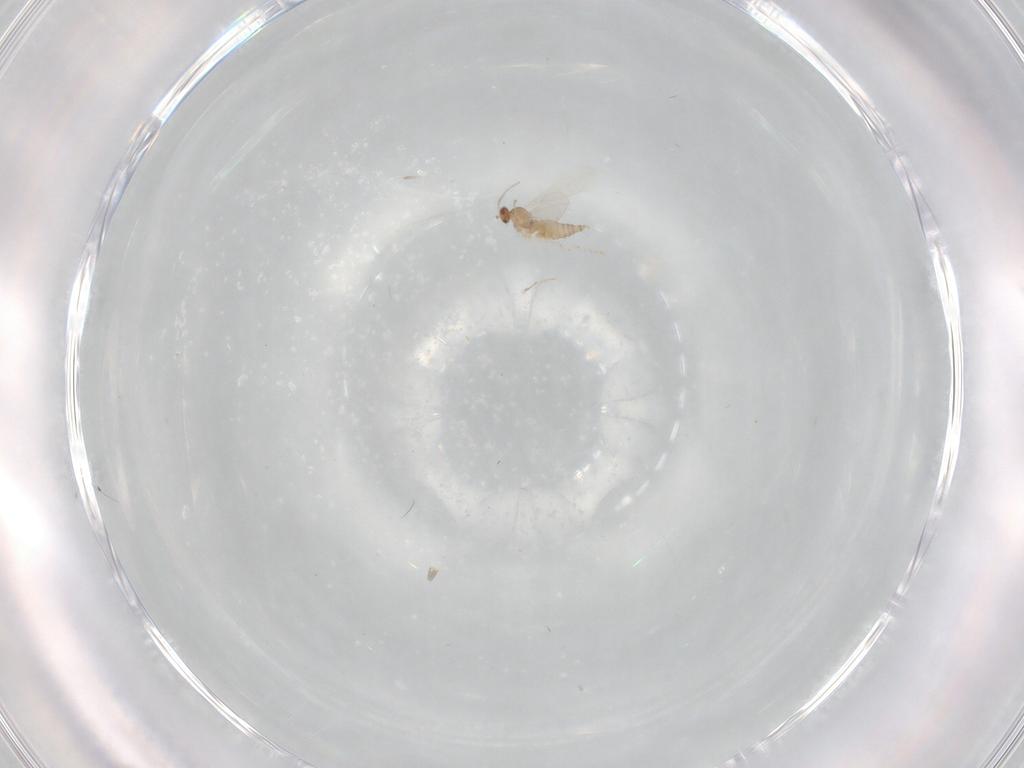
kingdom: Animalia
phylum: Arthropoda
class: Insecta
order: Diptera
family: Cecidomyiidae
